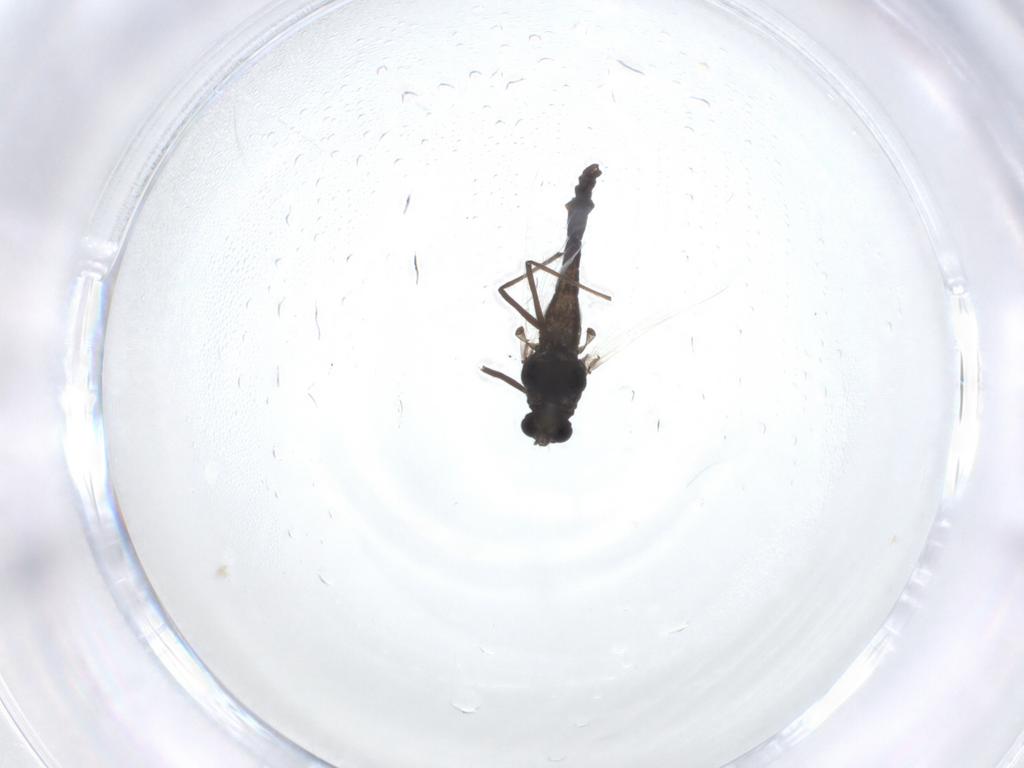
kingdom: Animalia
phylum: Arthropoda
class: Insecta
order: Diptera
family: Chironomidae
